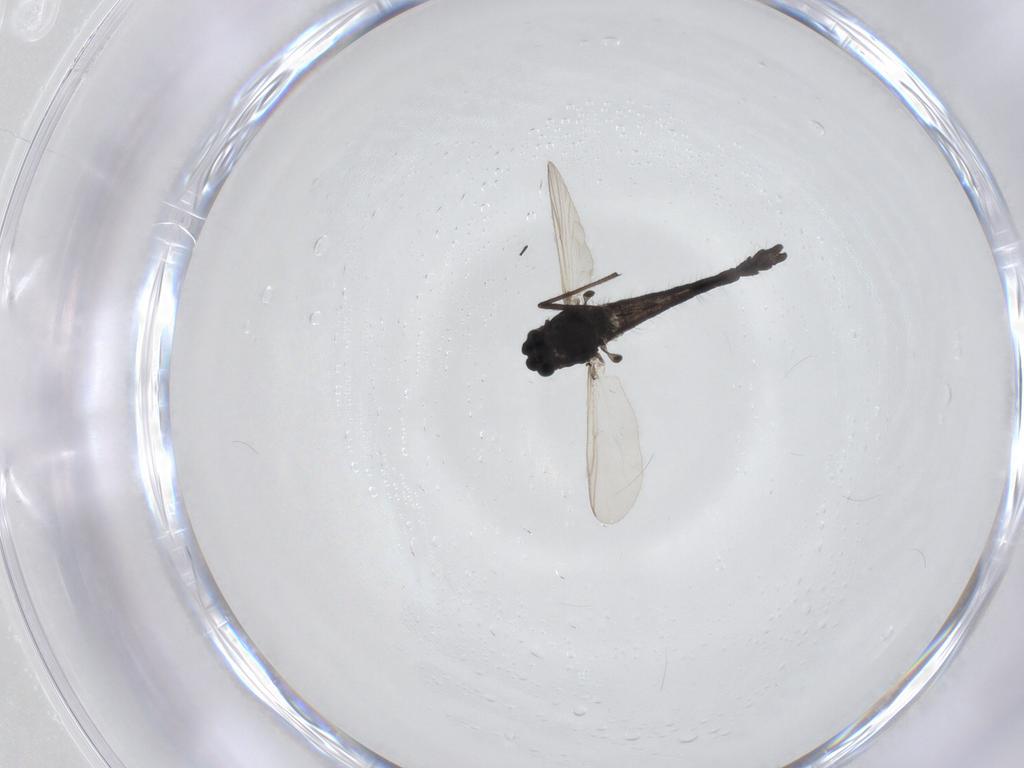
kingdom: Animalia
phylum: Arthropoda
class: Insecta
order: Diptera
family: Chironomidae
